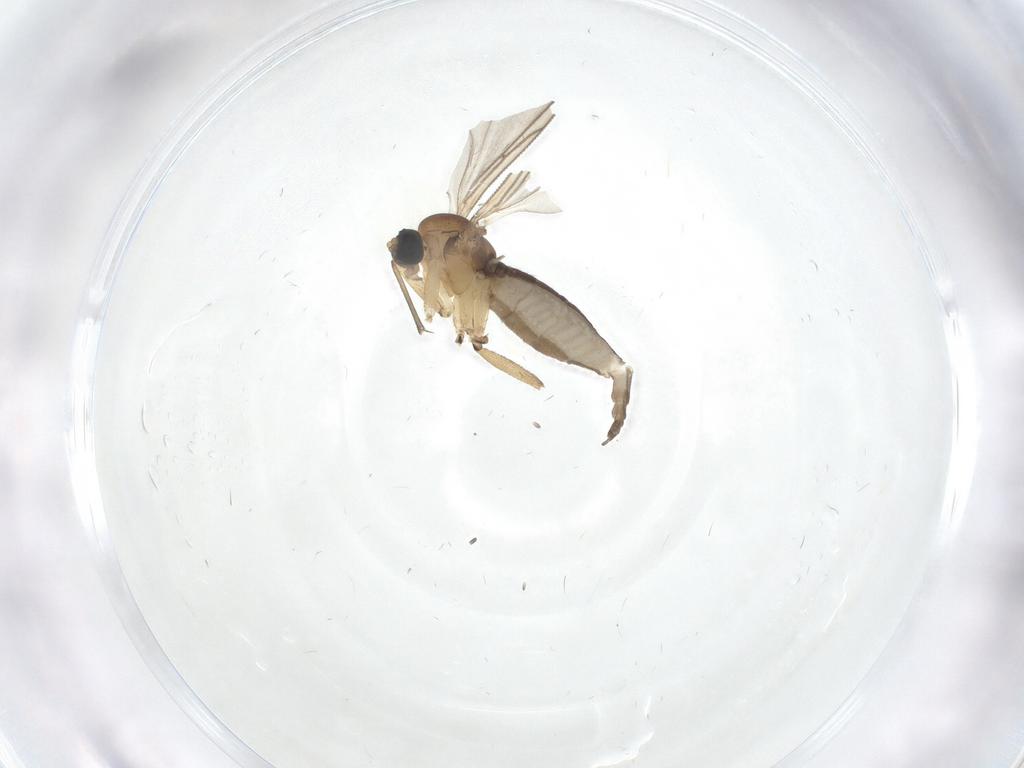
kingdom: Animalia
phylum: Arthropoda
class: Insecta
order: Diptera
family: Sciaridae
